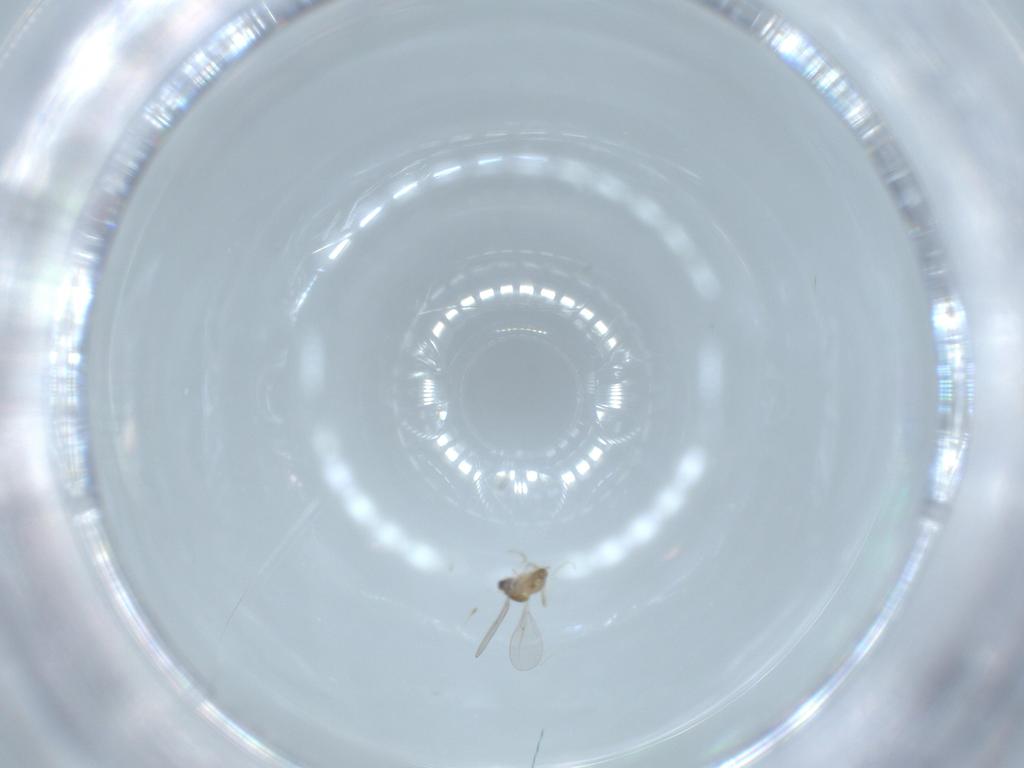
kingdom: Animalia
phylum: Arthropoda
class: Insecta
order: Diptera
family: Cecidomyiidae
